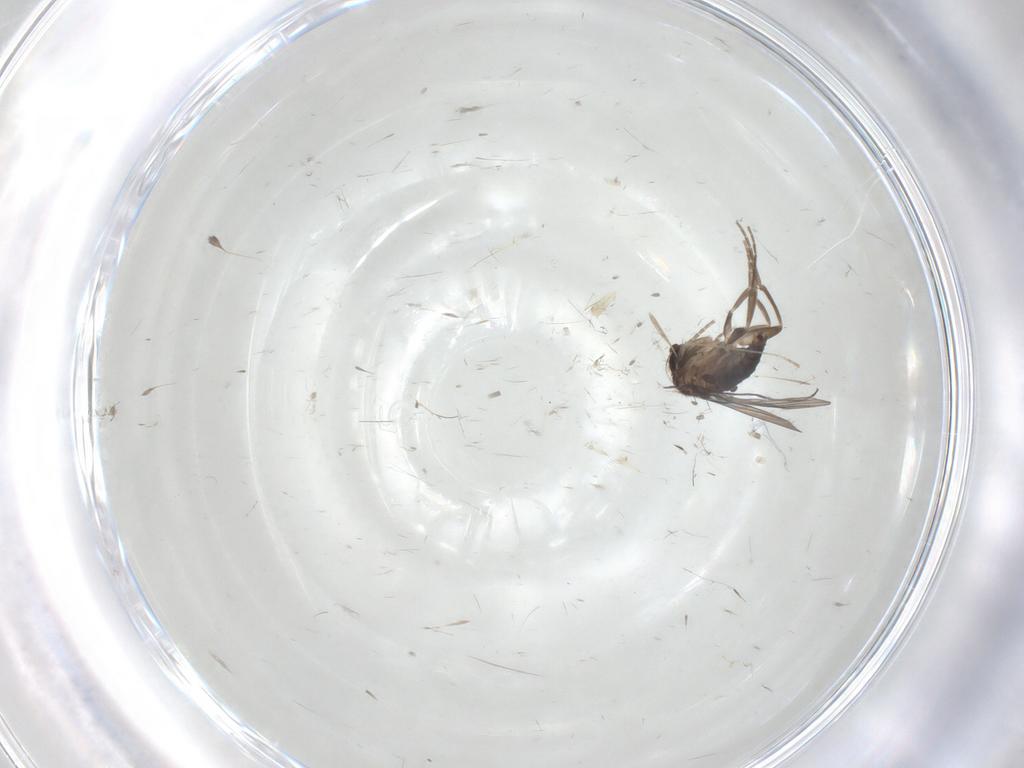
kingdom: Animalia
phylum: Arthropoda
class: Insecta
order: Diptera
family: Cecidomyiidae
